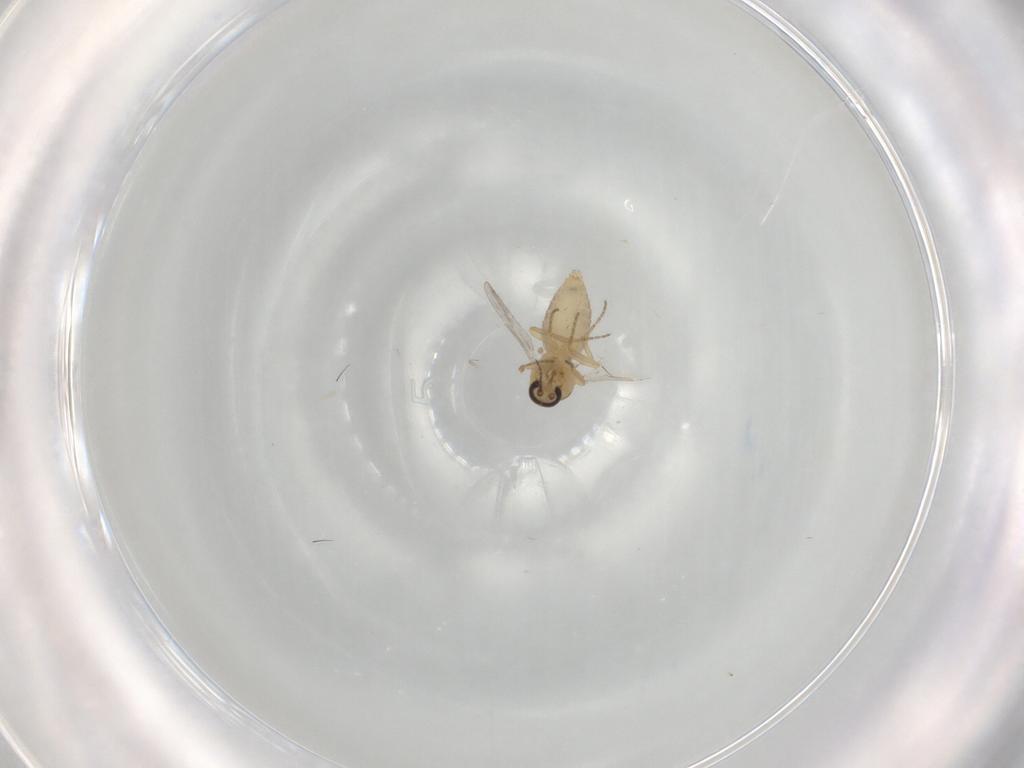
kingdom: Animalia
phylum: Arthropoda
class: Insecta
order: Diptera
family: Ceratopogonidae
